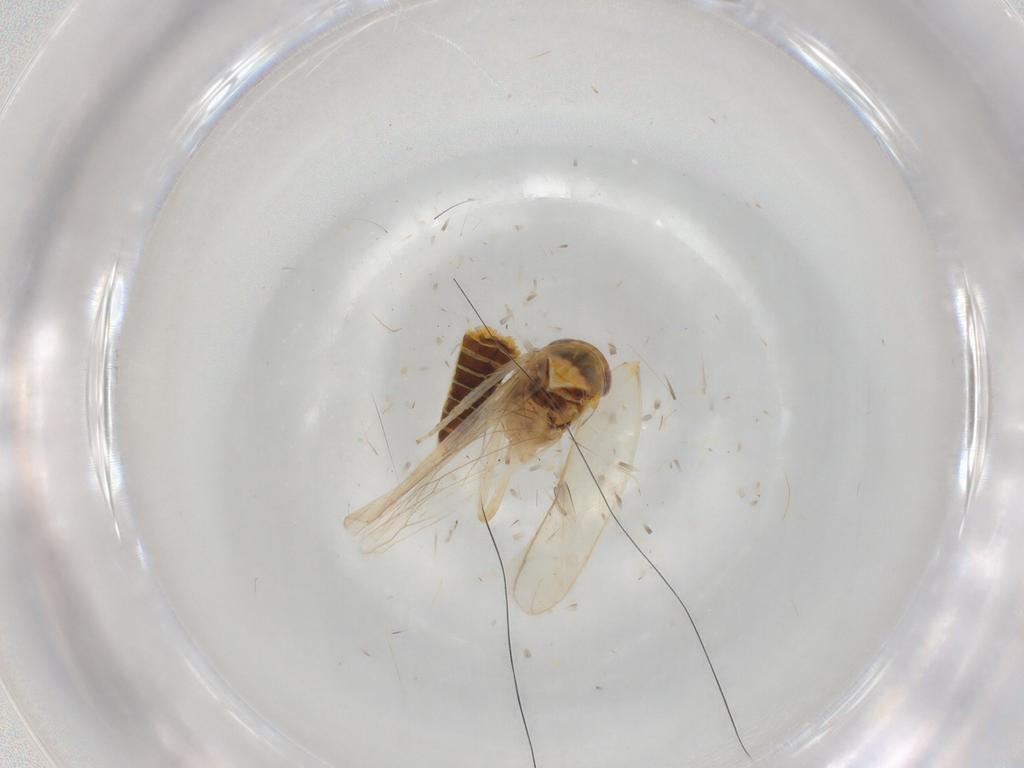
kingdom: Animalia
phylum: Arthropoda
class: Insecta
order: Hemiptera
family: Cicadellidae
